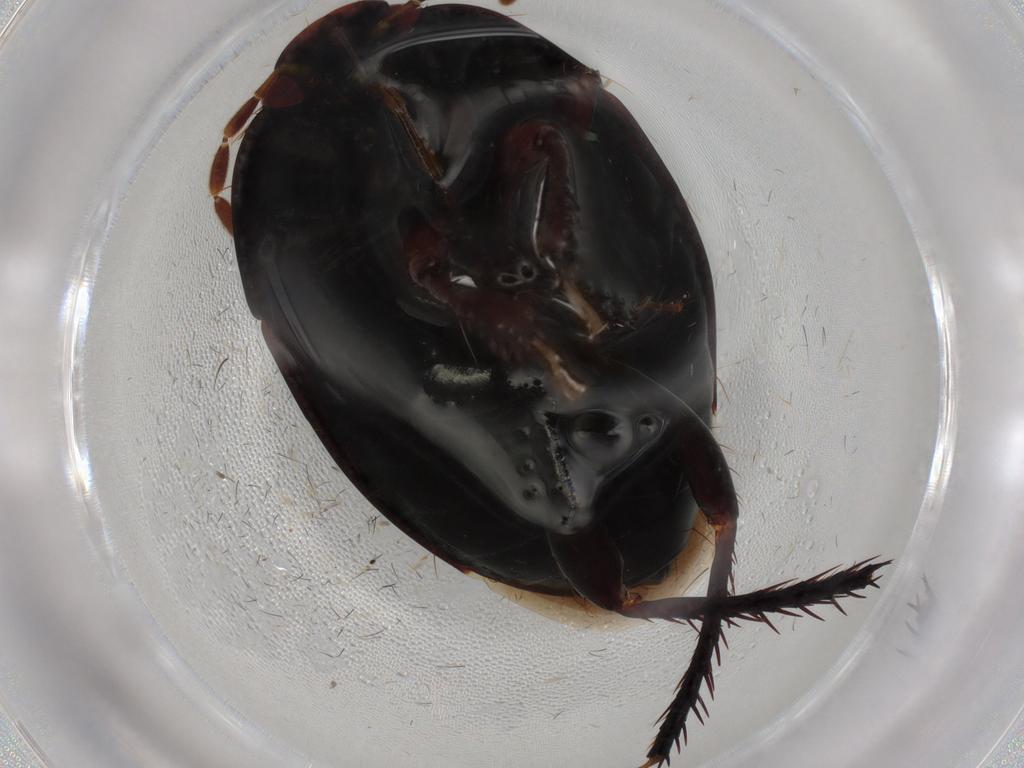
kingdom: Animalia
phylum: Arthropoda
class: Insecta
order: Hemiptera
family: Cydnidae
